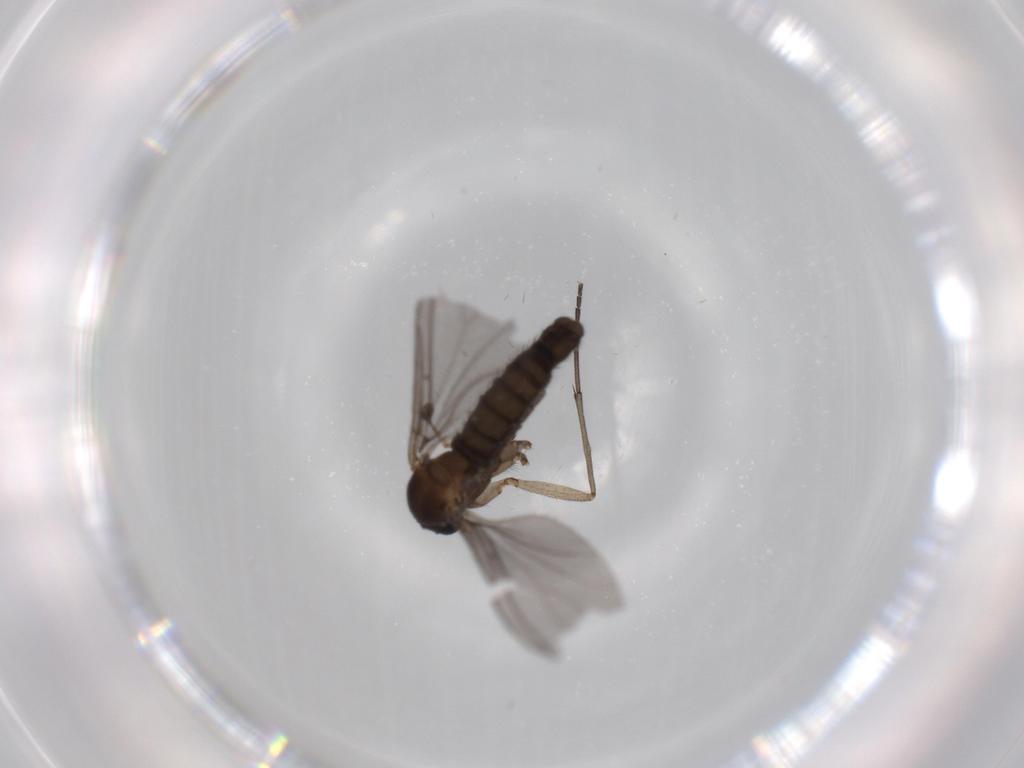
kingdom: Animalia
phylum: Arthropoda
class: Insecta
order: Diptera
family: Sciaridae
